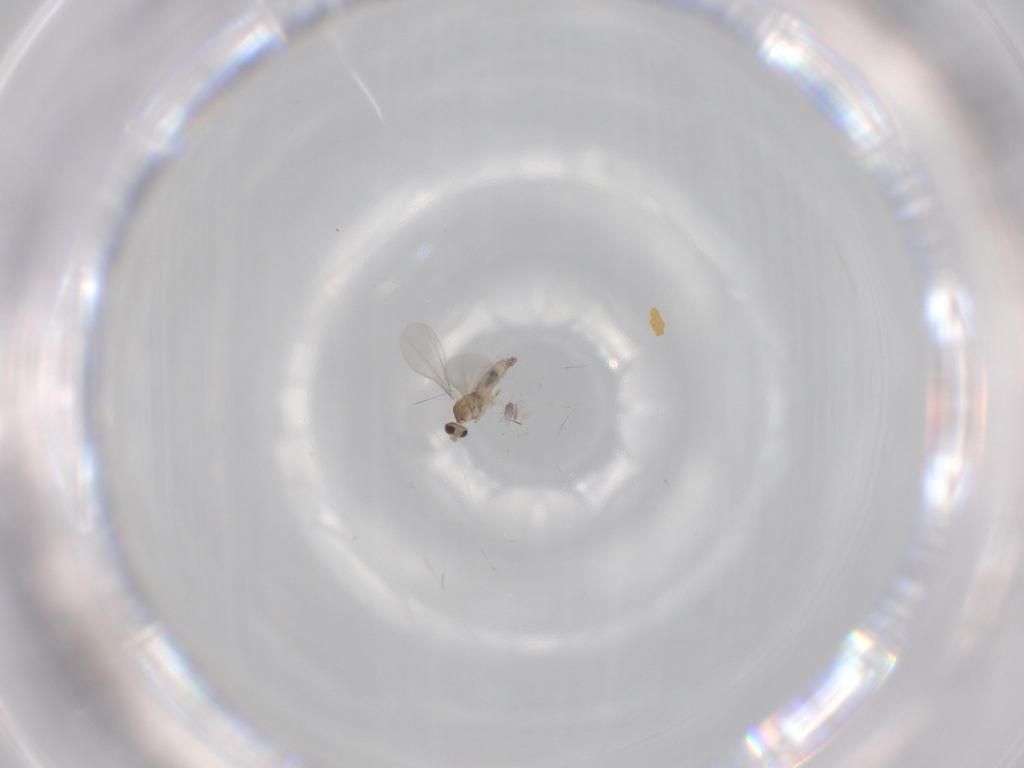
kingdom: Animalia
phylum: Arthropoda
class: Insecta
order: Diptera
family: Cecidomyiidae
